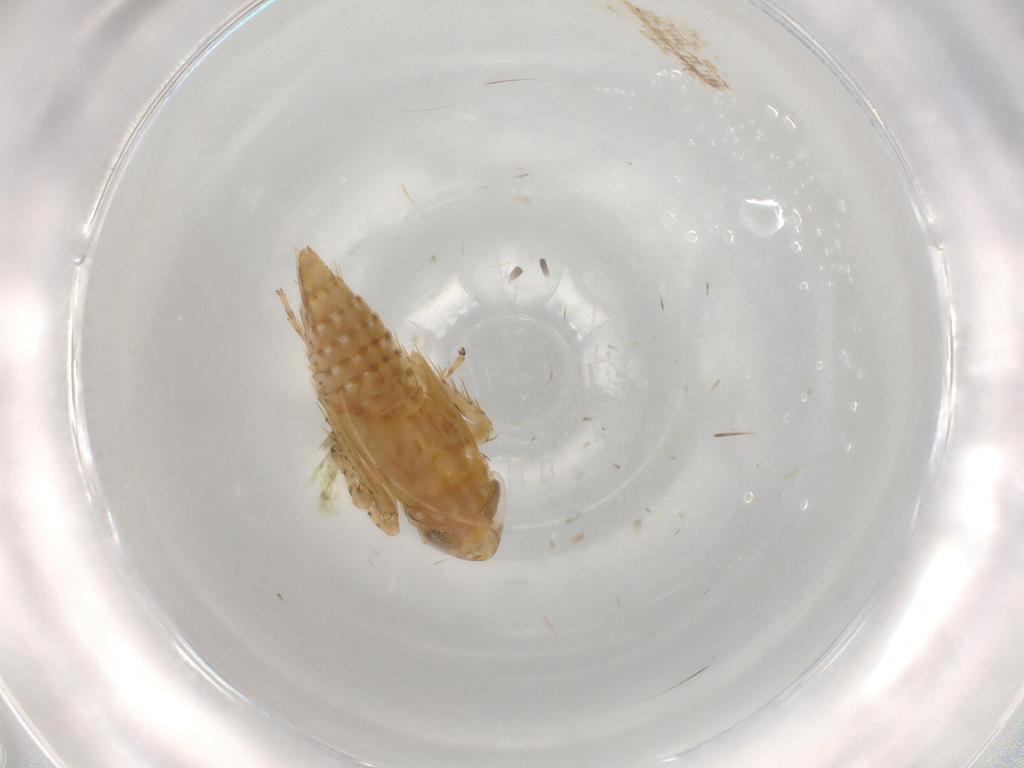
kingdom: Animalia
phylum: Arthropoda
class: Insecta
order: Hemiptera
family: Cicadellidae
